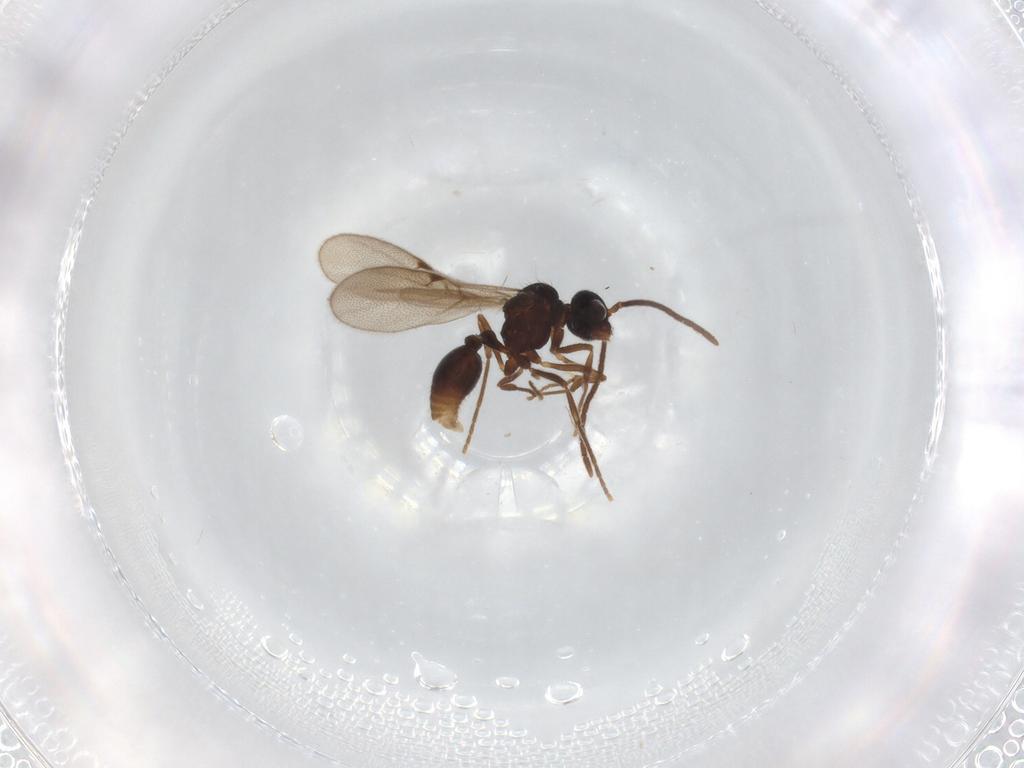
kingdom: Animalia
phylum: Arthropoda
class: Insecta
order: Hymenoptera
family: Formicidae
